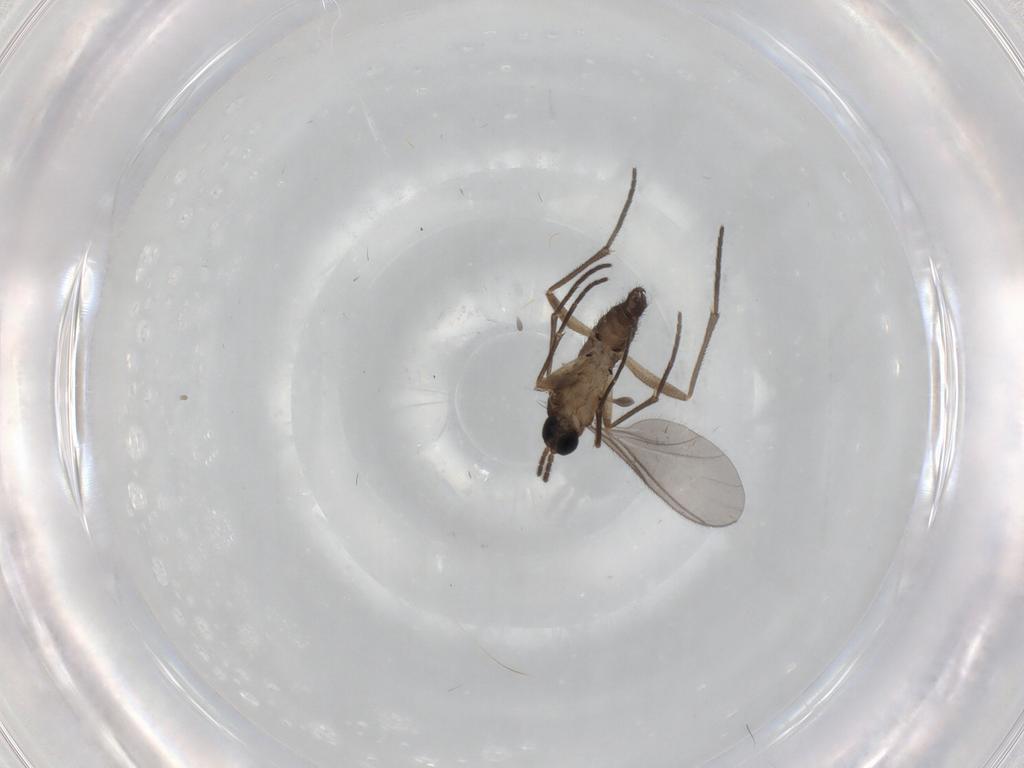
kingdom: Animalia
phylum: Arthropoda
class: Insecta
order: Diptera
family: Sciaridae
